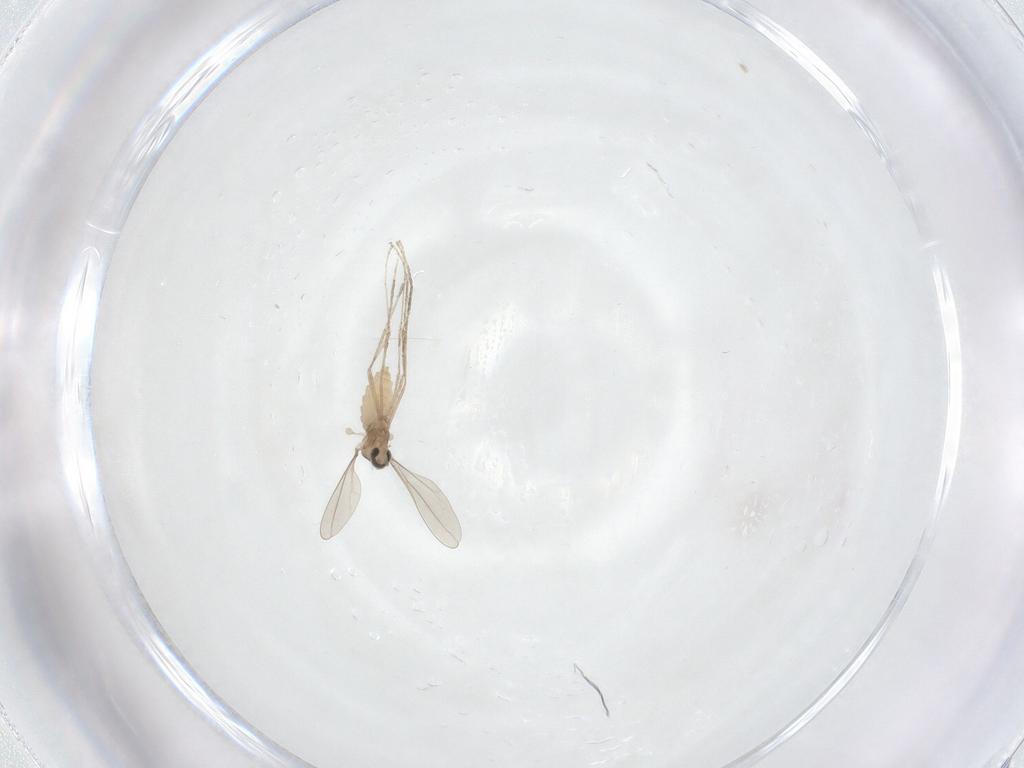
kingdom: Animalia
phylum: Arthropoda
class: Insecta
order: Diptera
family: Cecidomyiidae
